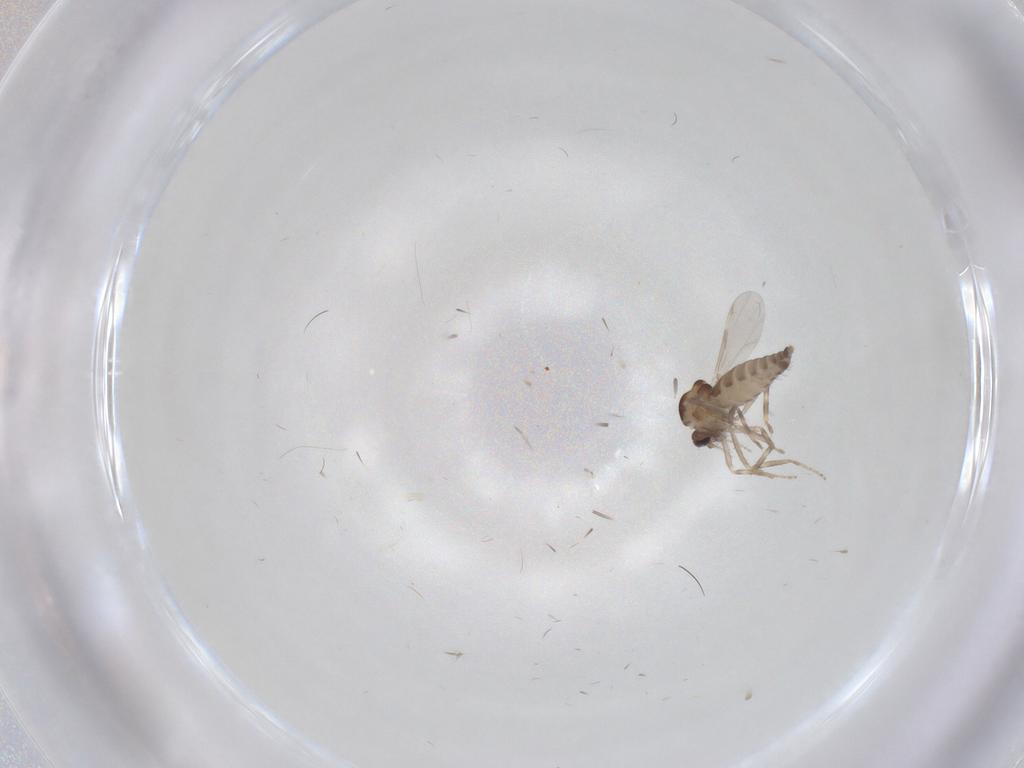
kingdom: Animalia
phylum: Arthropoda
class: Insecta
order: Diptera
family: Ceratopogonidae
